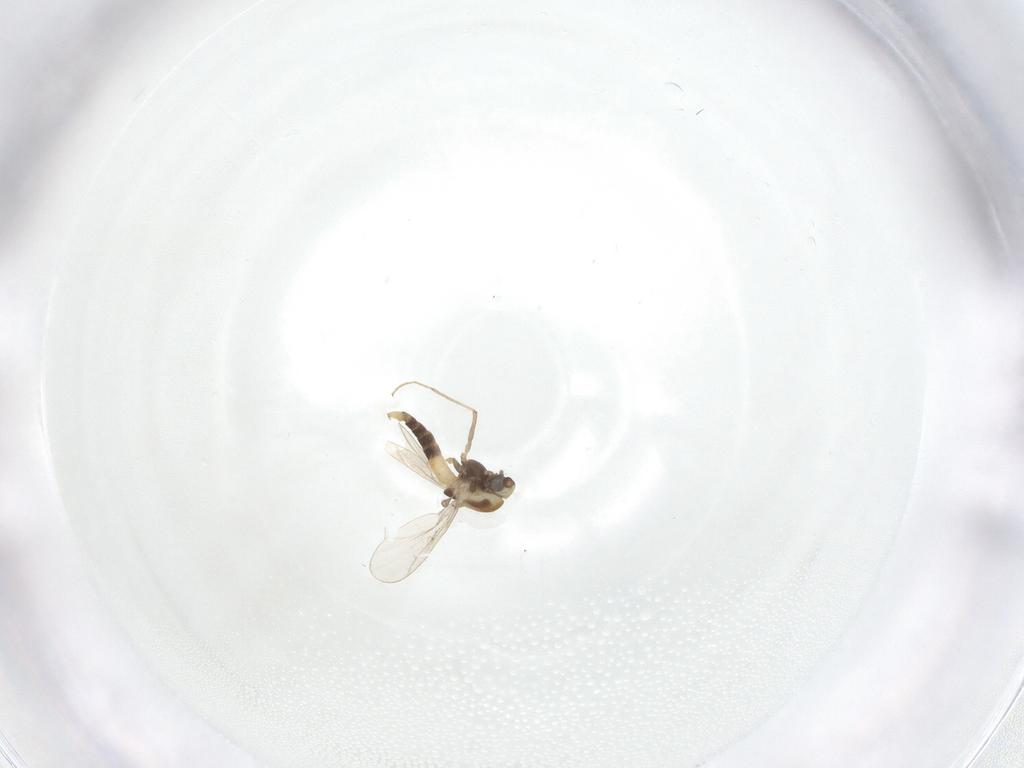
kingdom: Animalia
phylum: Arthropoda
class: Insecta
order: Diptera
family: Chironomidae
